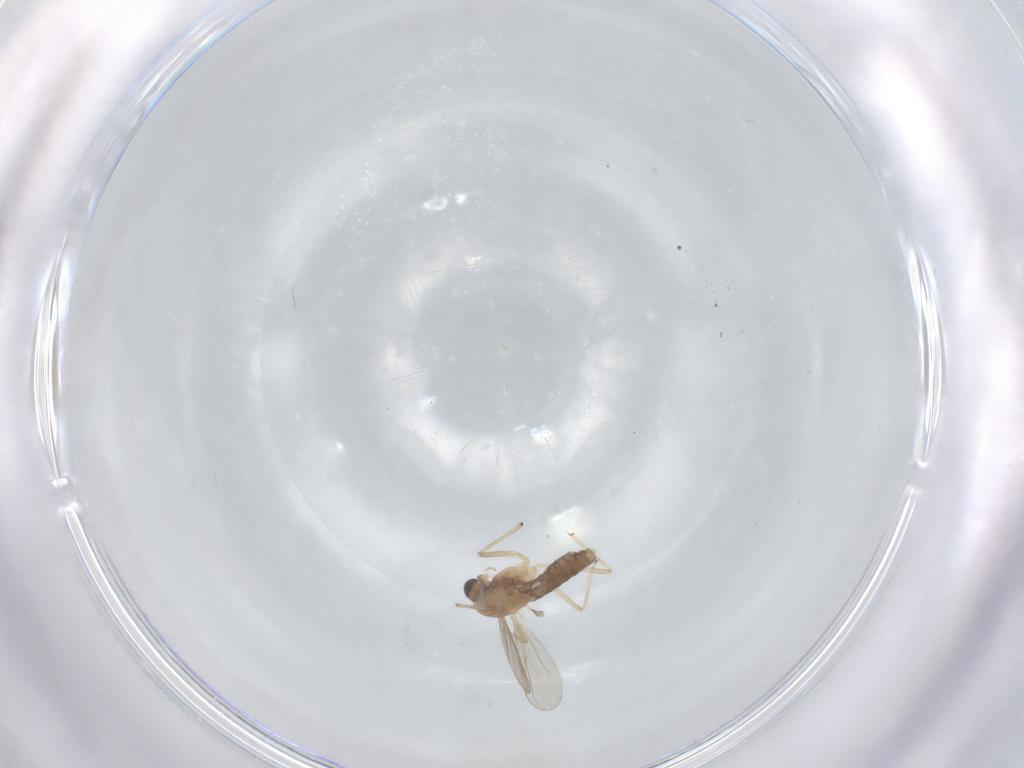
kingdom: Animalia
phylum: Arthropoda
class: Insecta
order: Diptera
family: Chironomidae
